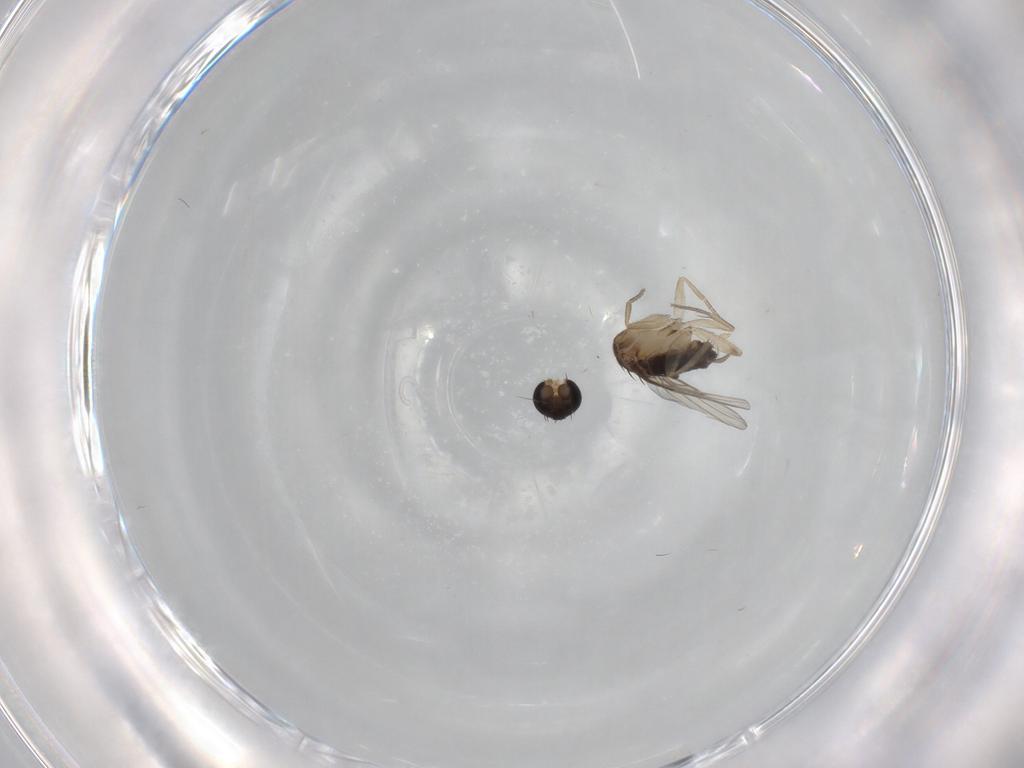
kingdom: Animalia
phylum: Arthropoda
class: Insecta
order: Diptera
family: Phoridae
